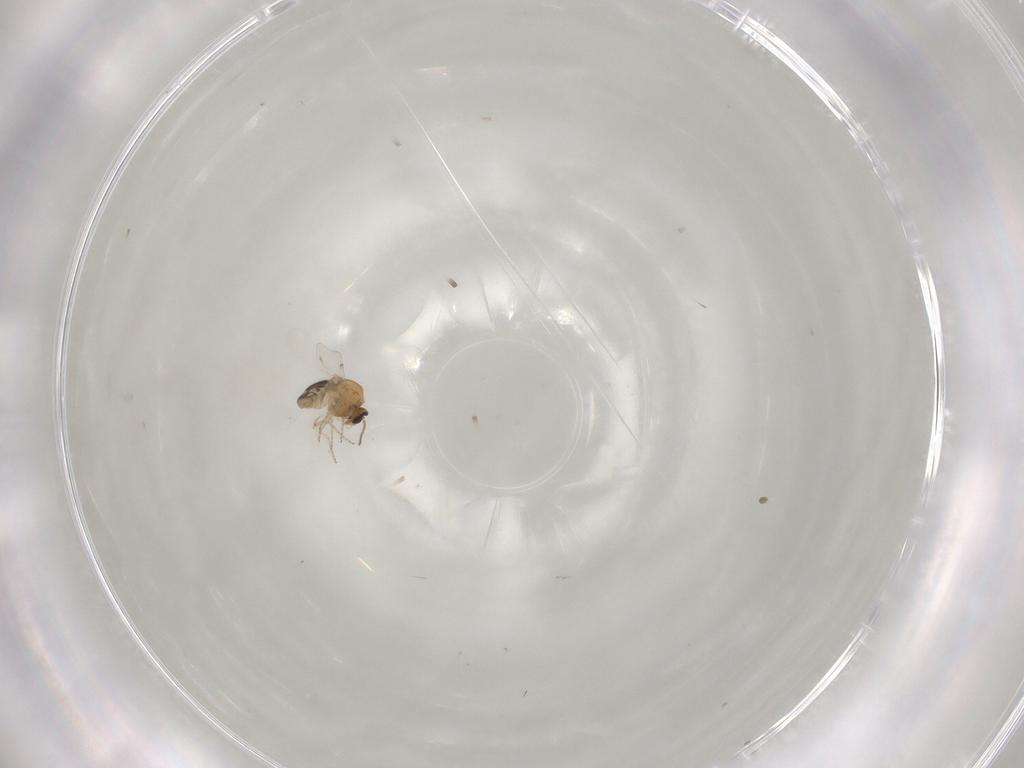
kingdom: Animalia
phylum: Arthropoda
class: Insecta
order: Diptera
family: Ceratopogonidae
